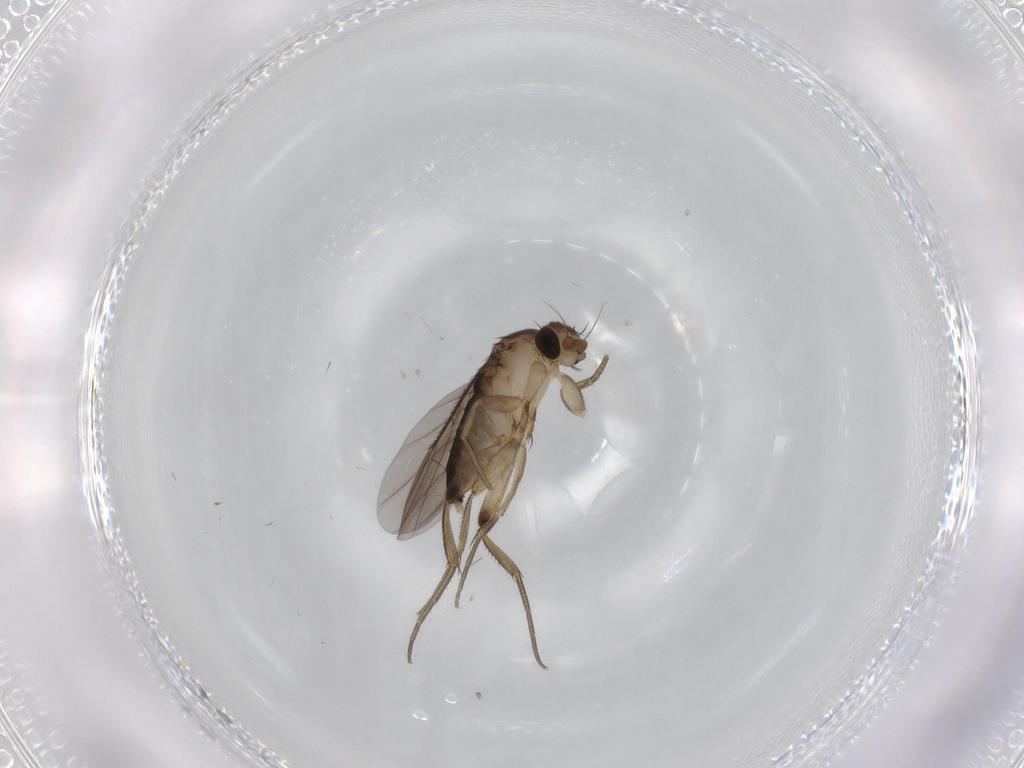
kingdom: Animalia
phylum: Arthropoda
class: Insecta
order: Diptera
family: Phoridae
